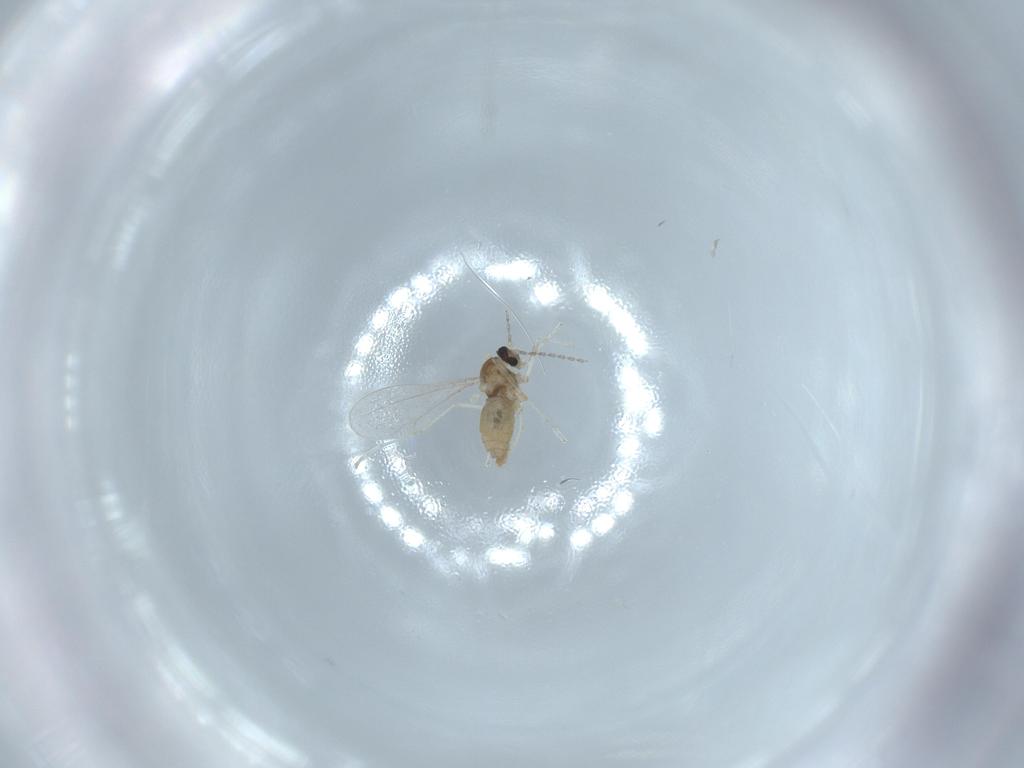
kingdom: Animalia
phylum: Arthropoda
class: Insecta
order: Diptera
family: Cecidomyiidae
